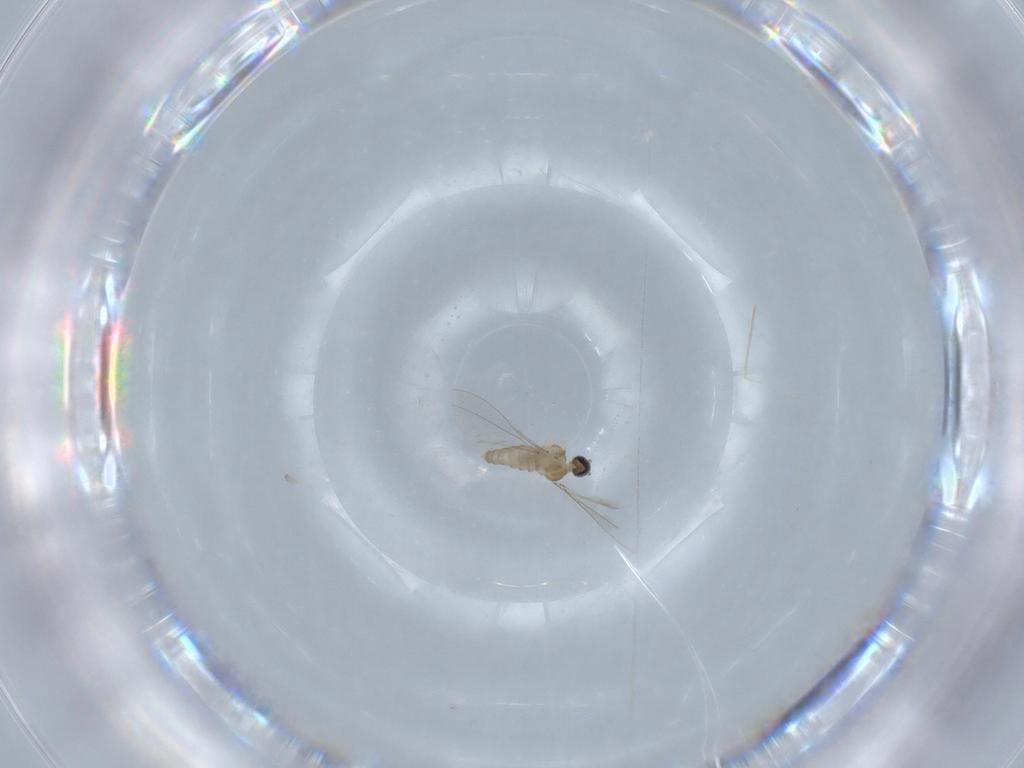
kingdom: Animalia
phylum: Arthropoda
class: Insecta
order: Diptera
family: Cecidomyiidae
